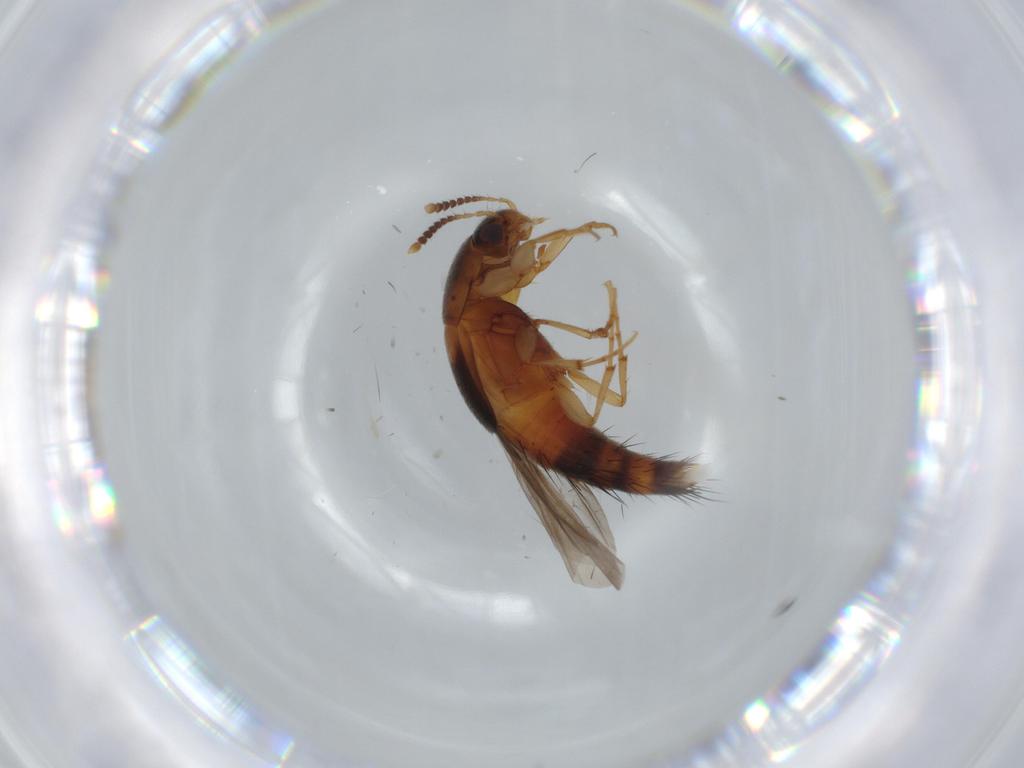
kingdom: Animalia
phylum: Arthropoda
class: Insecta
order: Coleoptera
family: Staphylinidae
